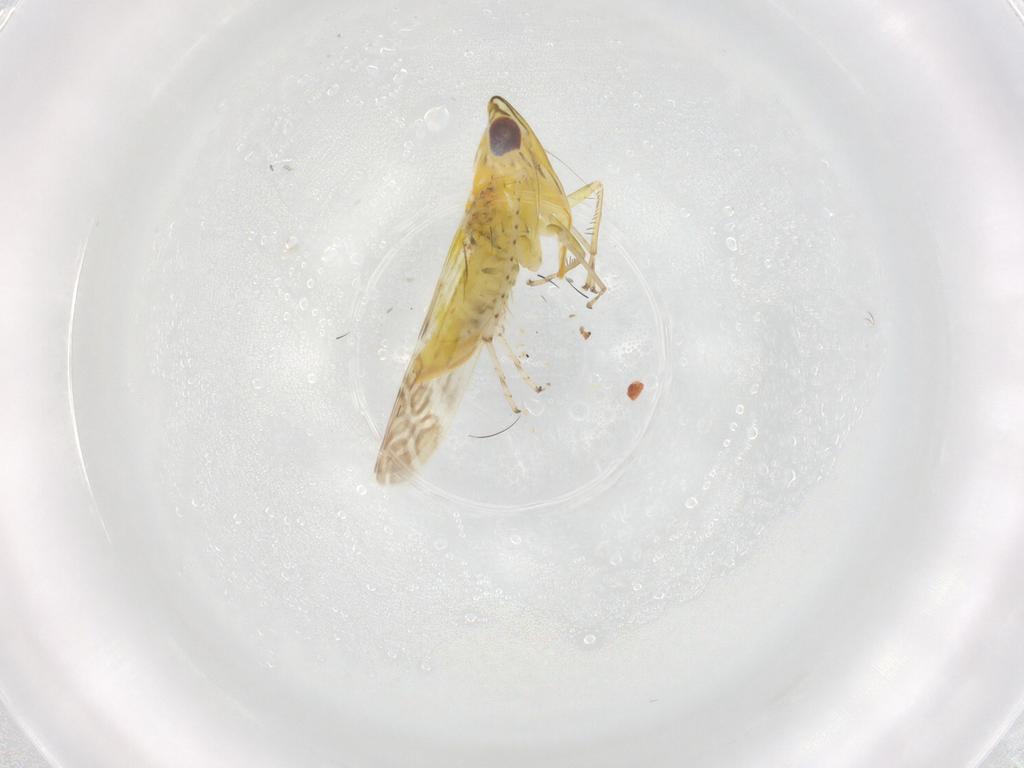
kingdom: Animalia
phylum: Arthropoda
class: Insecta
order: Hemiptera
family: Cicadellidae
